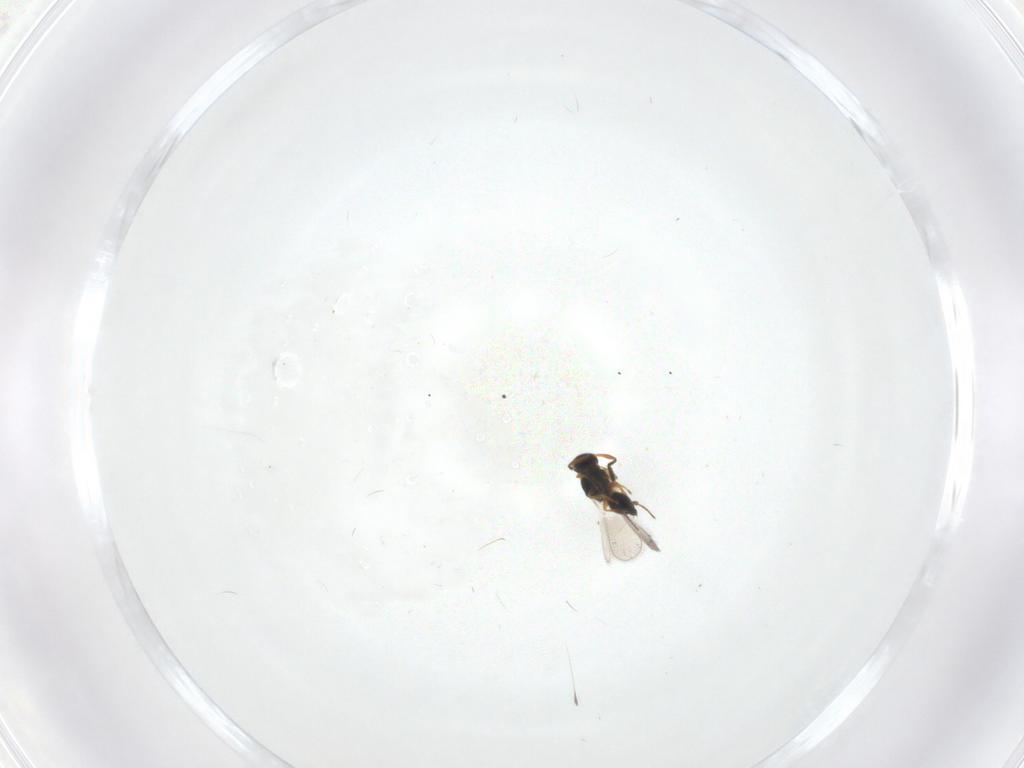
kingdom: Animalia
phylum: Arthropoda
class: Insecta
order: Hymenoptera
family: Platygastridae
